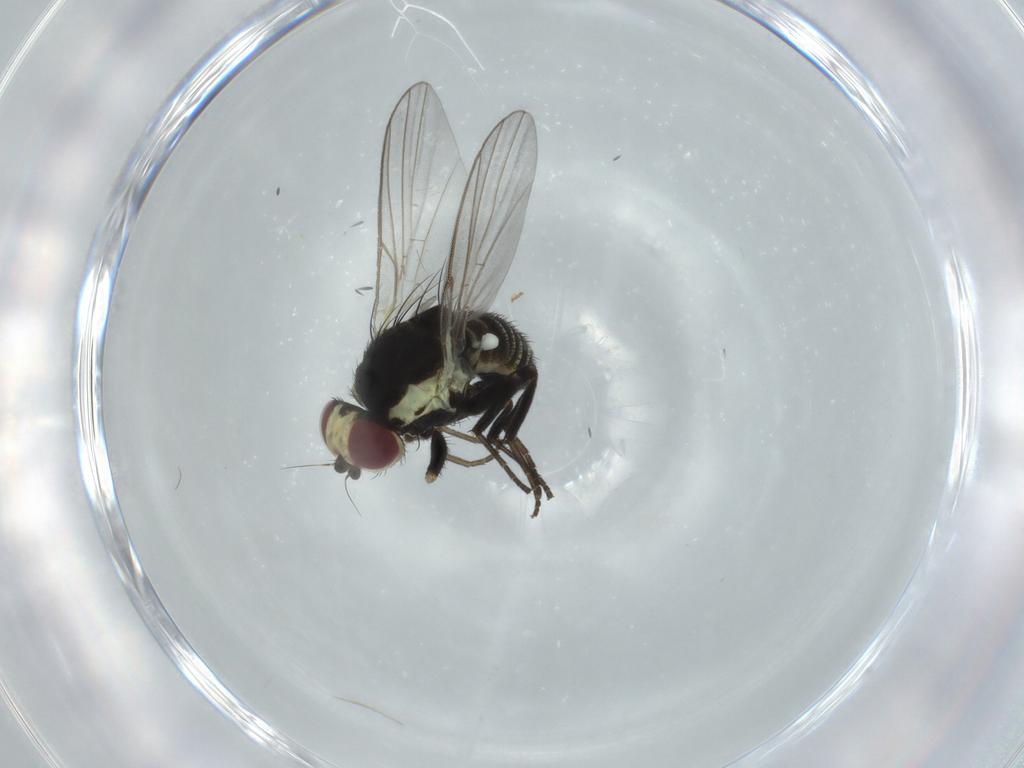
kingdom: Animalia
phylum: Arthropoda
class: Insecta
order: Diptera
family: Agromyzidae
